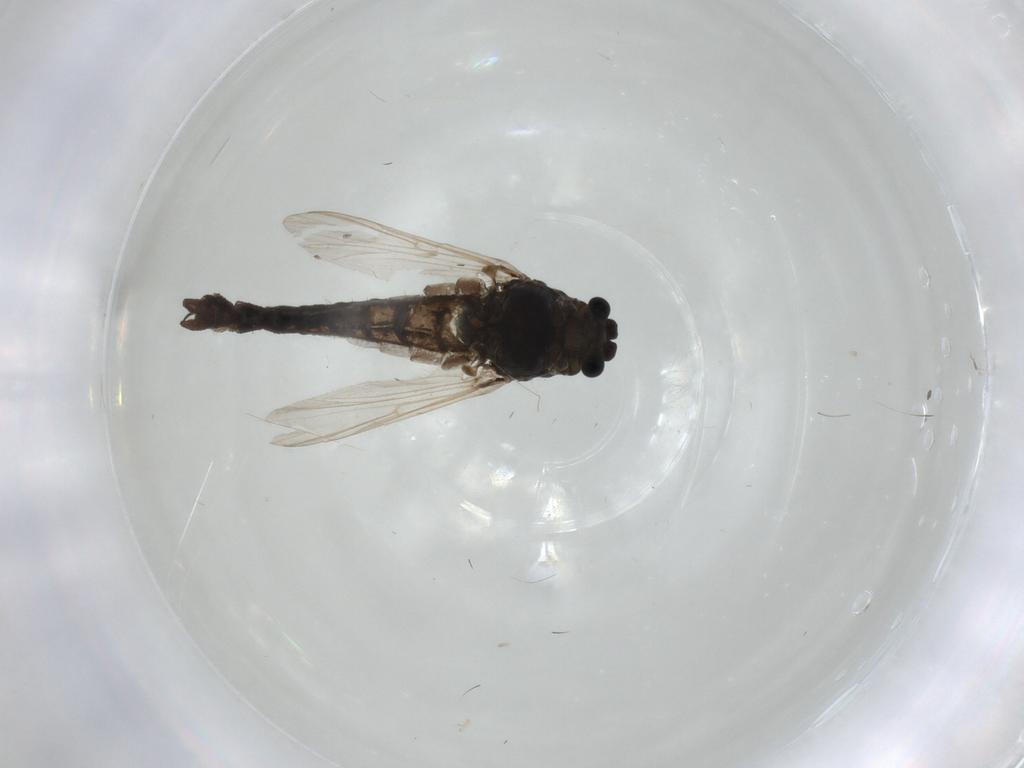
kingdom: Animalia
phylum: Arthropoda
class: Insecta
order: Diptera
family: Chironomidae
